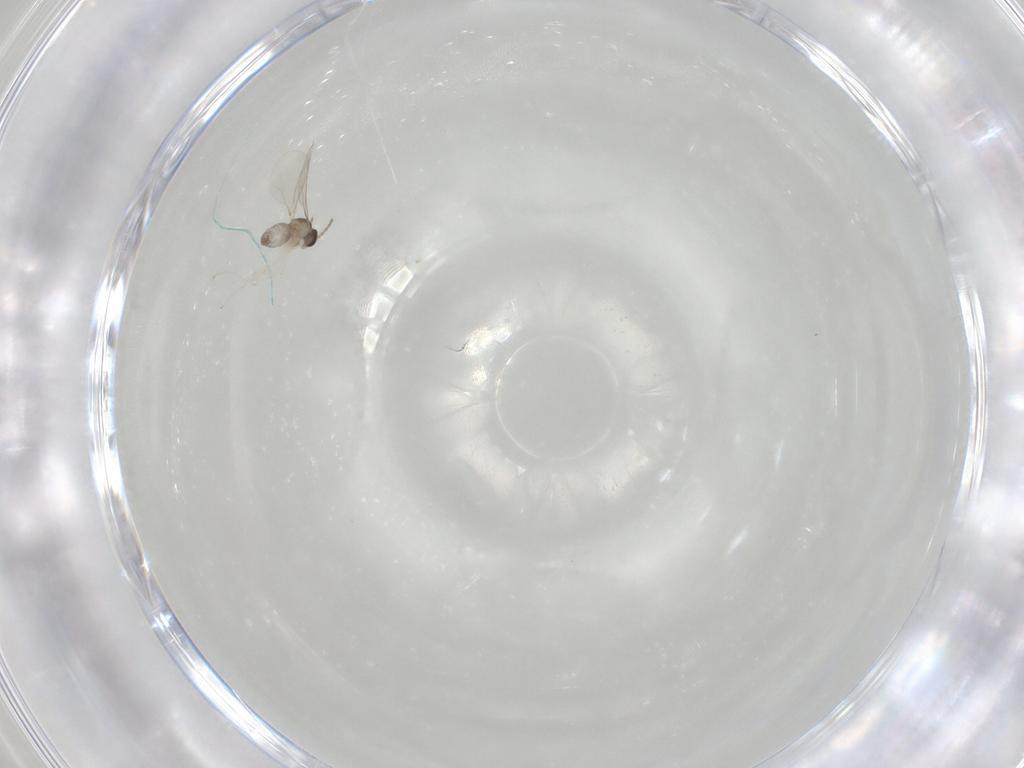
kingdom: Animalia
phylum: Arthropoda
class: Insecta
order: Diptera
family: Cecidomyiidae
